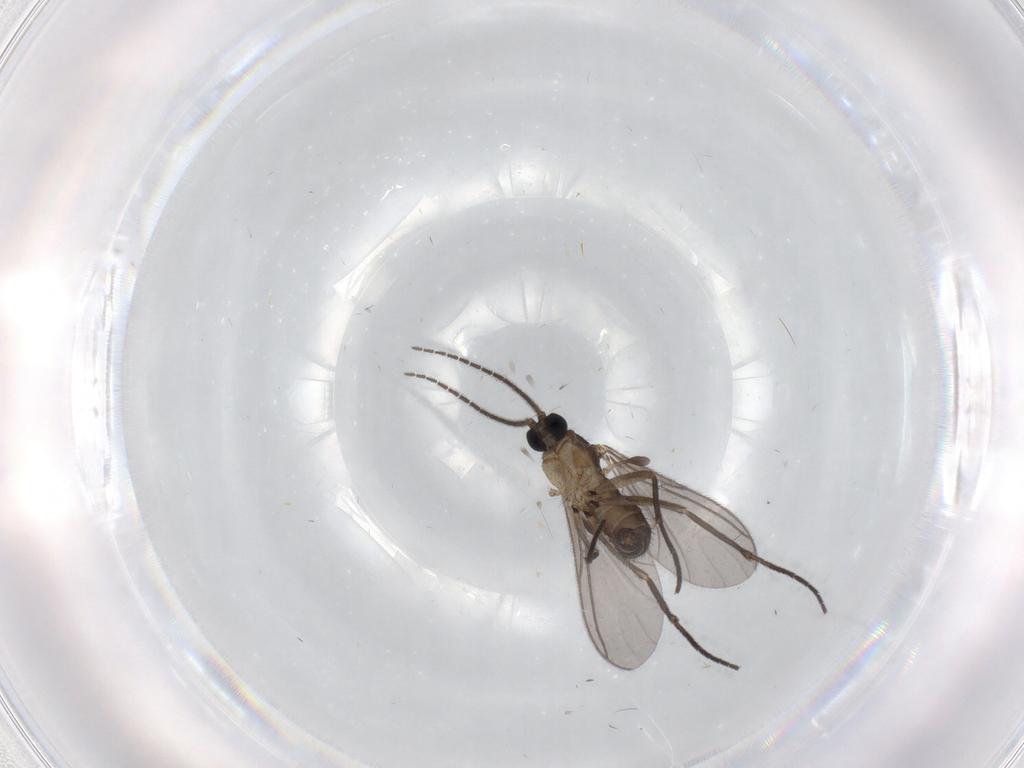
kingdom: Animalia
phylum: Arthropoda
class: Insecta
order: Diptera
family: Sciaridae
